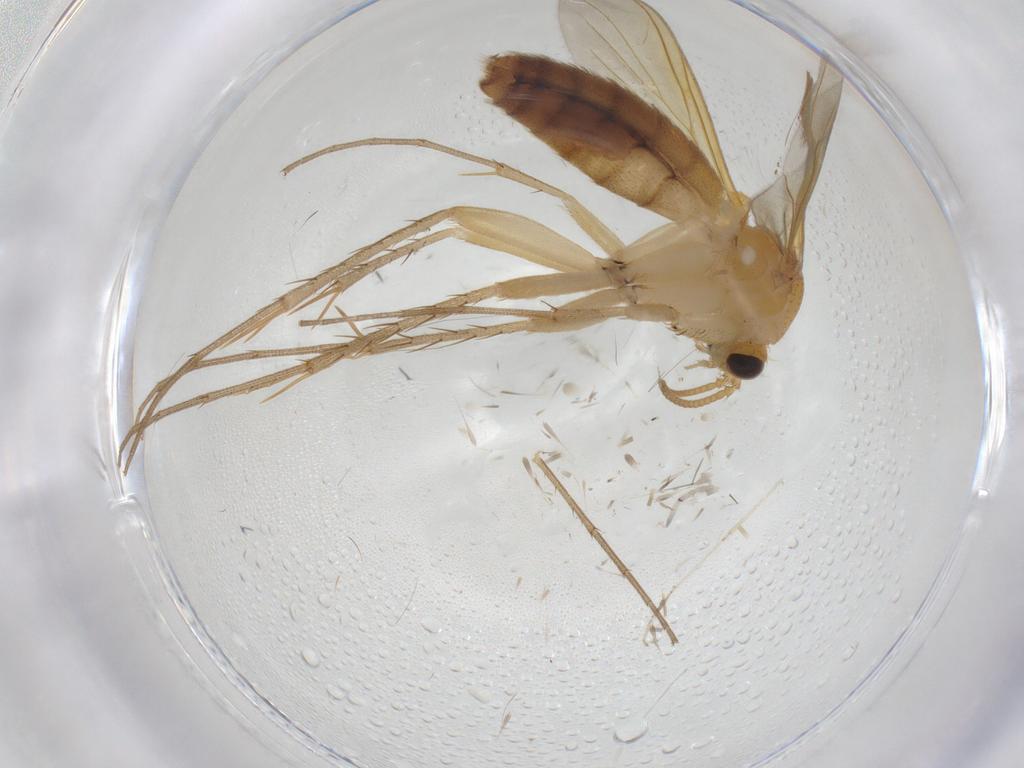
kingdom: Animalia
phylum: Arthropoda
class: Insecta
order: Diptera
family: Mycetophilidae
